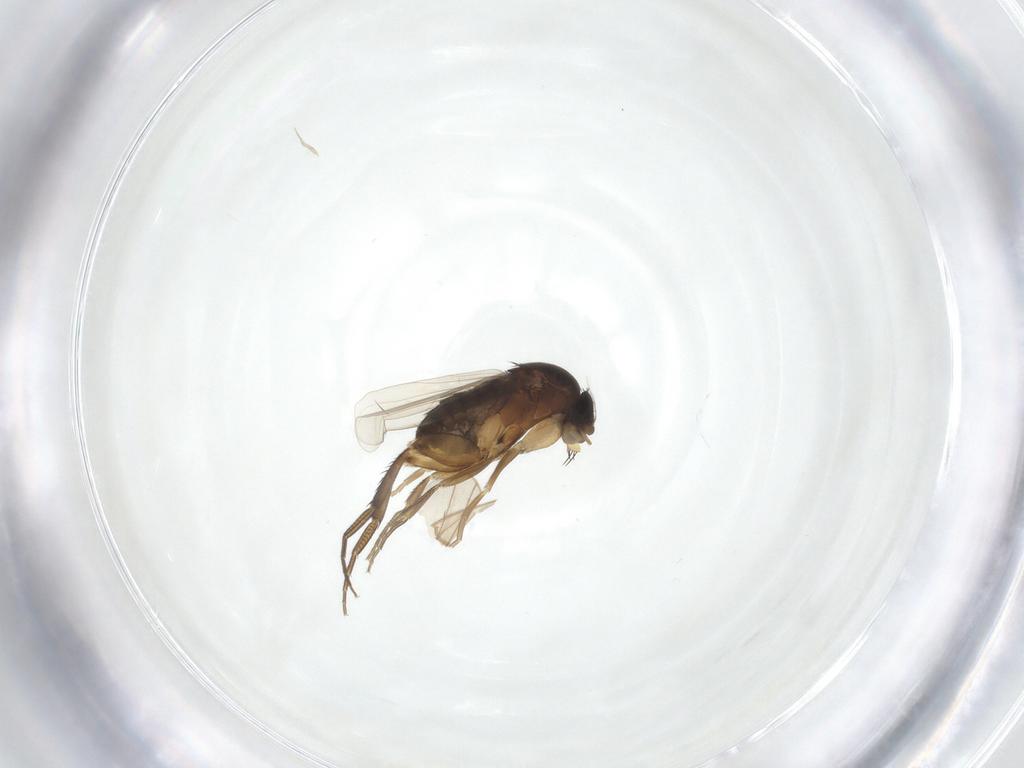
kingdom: Animalia
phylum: Arthropoda
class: Insecta
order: Diptera
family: Phoridae
